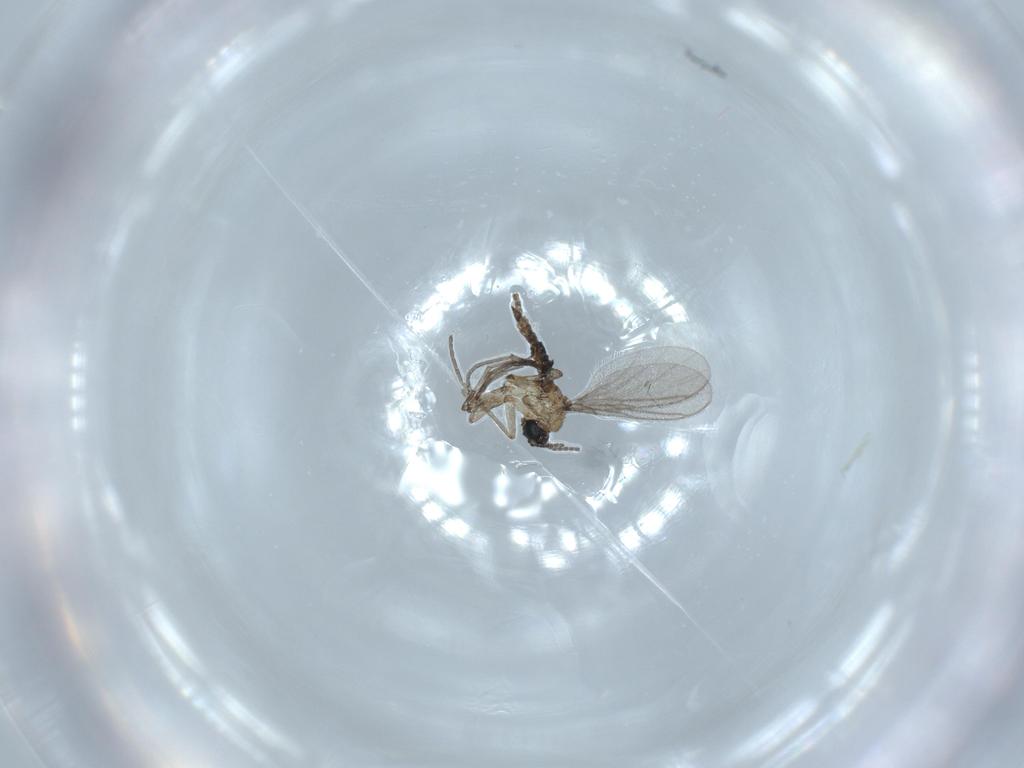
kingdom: Animalia
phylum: Arthropoda
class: Insecta
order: Diptera
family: Sciaridae
